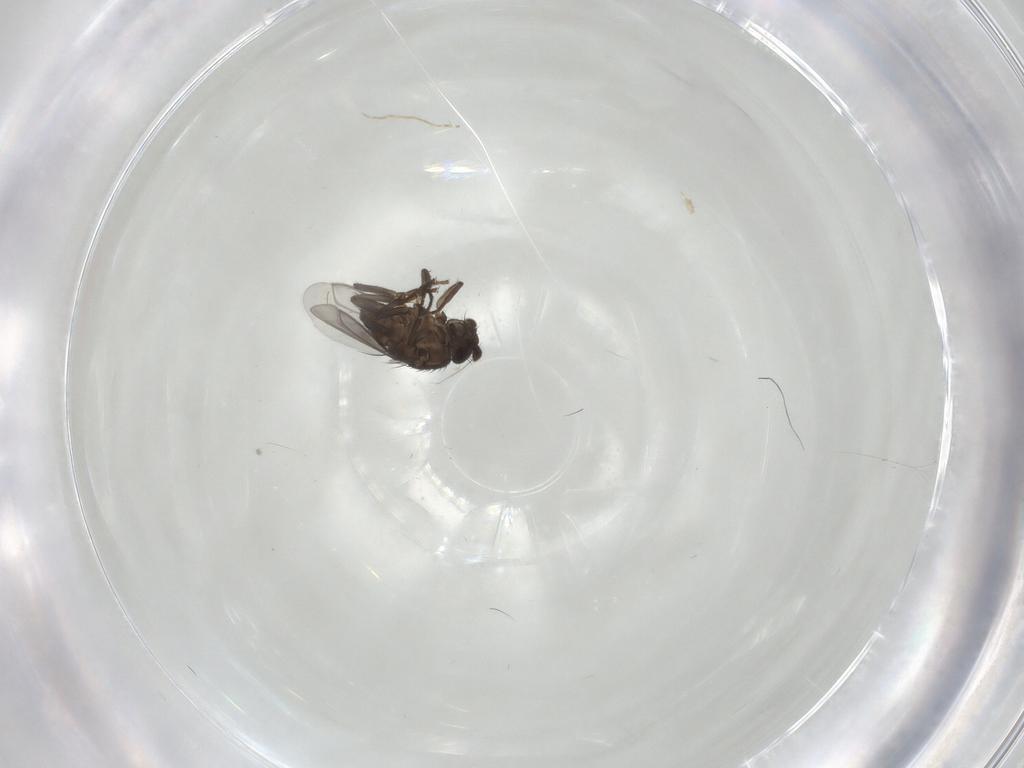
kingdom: Animalia
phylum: Arthropoda
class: Insecta
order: Diptera
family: Sphaeroceridae
